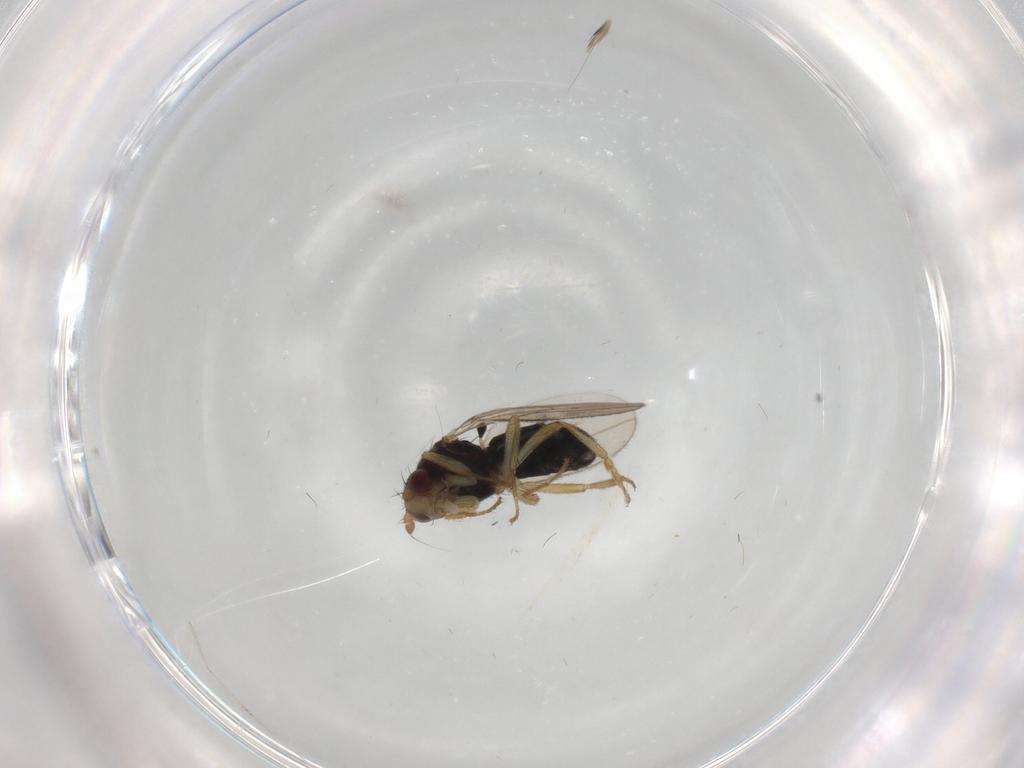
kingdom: Animalia
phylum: Arthropoda
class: Insecta
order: Diptera
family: Sphaeroceridae
